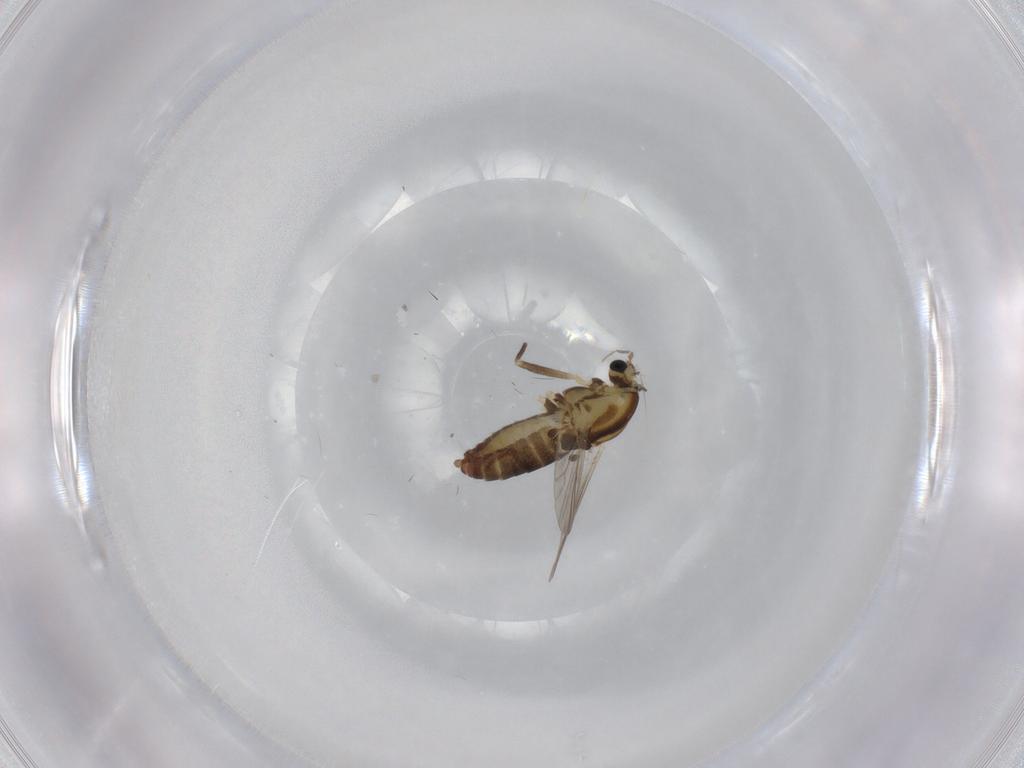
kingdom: Animalia
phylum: Arthropoda
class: Insecta
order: Diptera
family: Chironomidae
